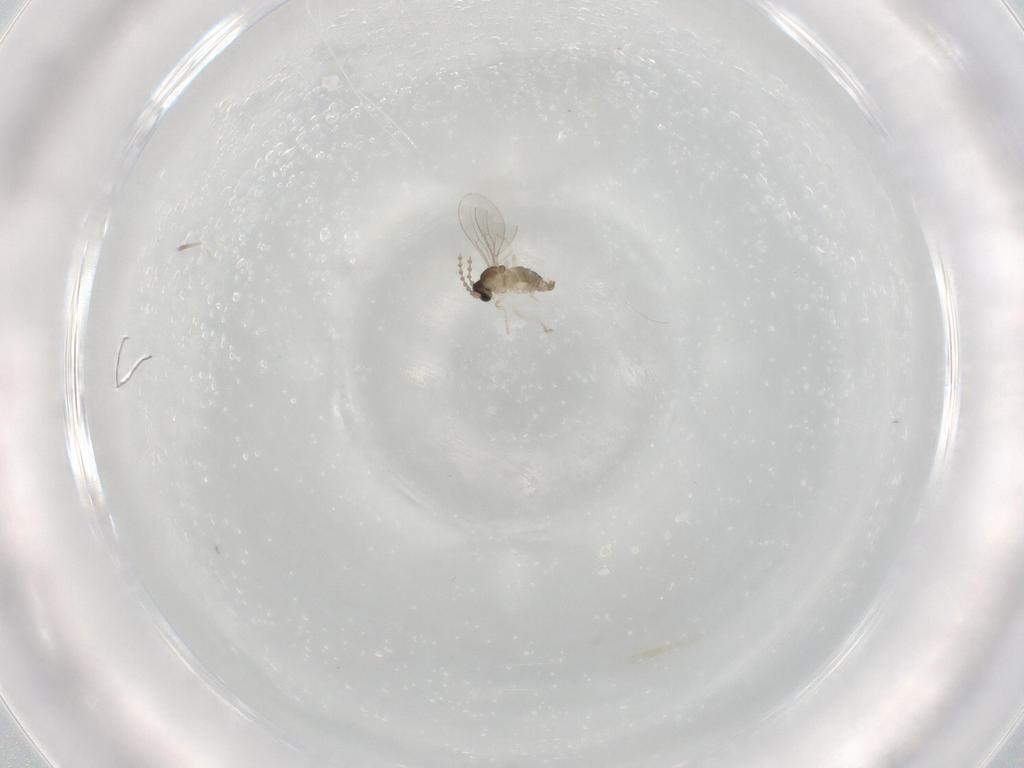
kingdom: Animalia
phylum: Arthropoda
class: Insecta
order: Diptera
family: Cecidomyiidae
